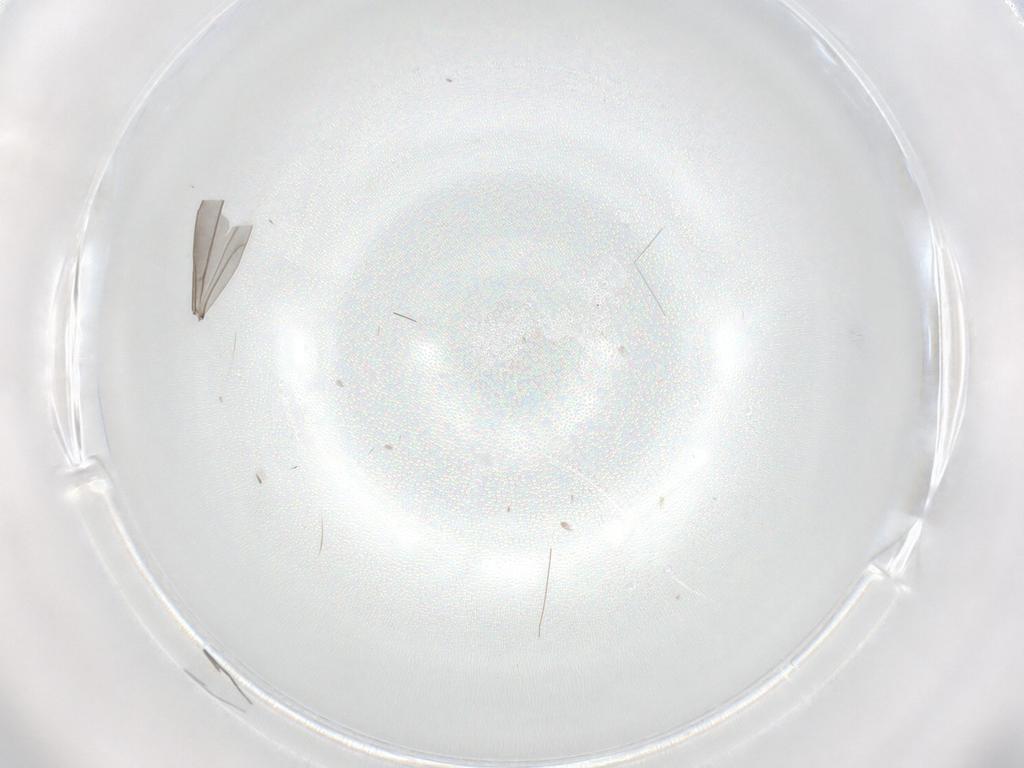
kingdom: Animalia
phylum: Arthropoda
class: Insecta
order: Diptera
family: Cecidomyiidae
